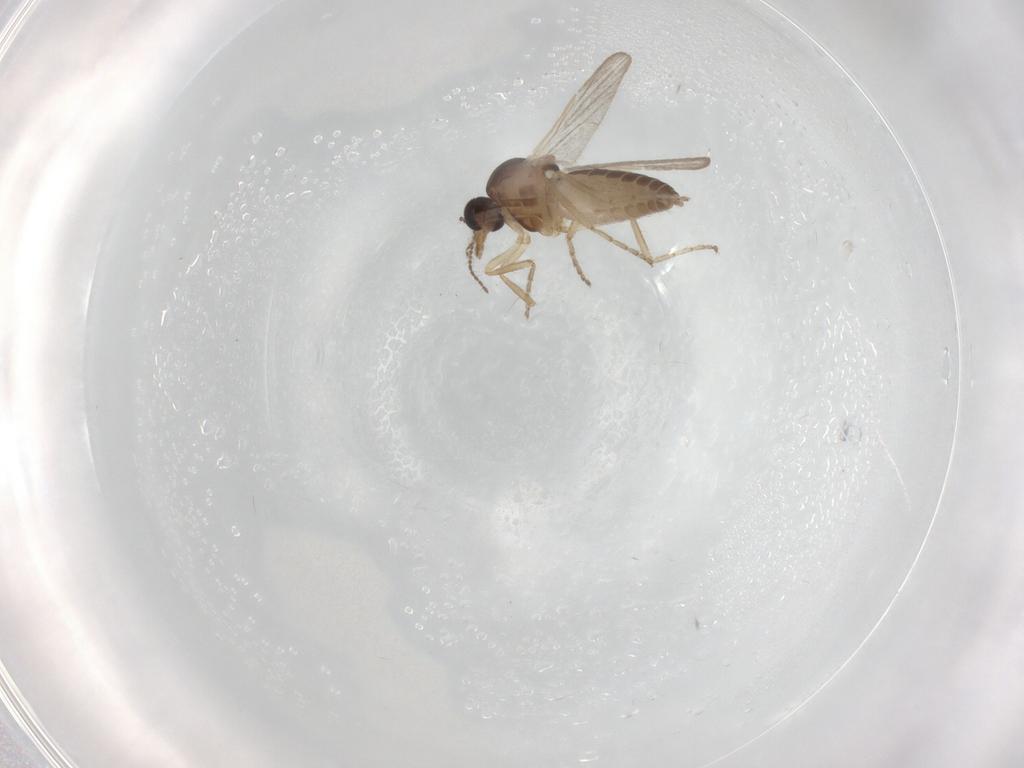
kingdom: Animalia
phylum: Arthropoda
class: Insecta
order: Diptera
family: Ceratopogonidae
